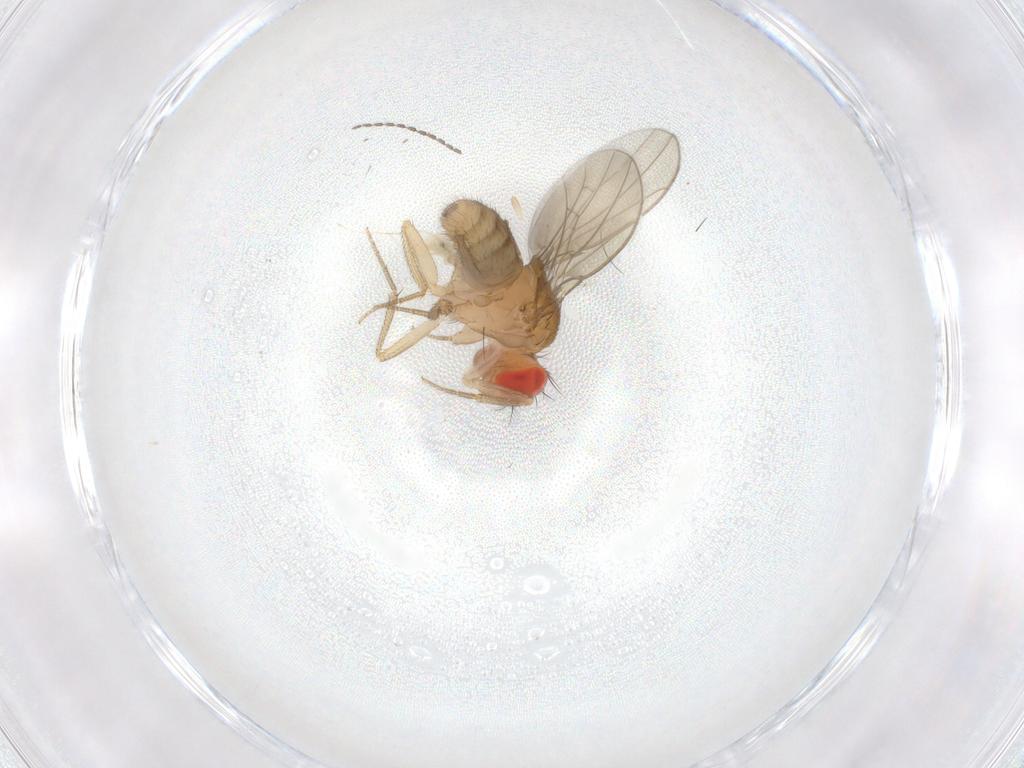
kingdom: Animalia
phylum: Arthropoda
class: Insecta
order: Diptera
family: Drosophilidae
